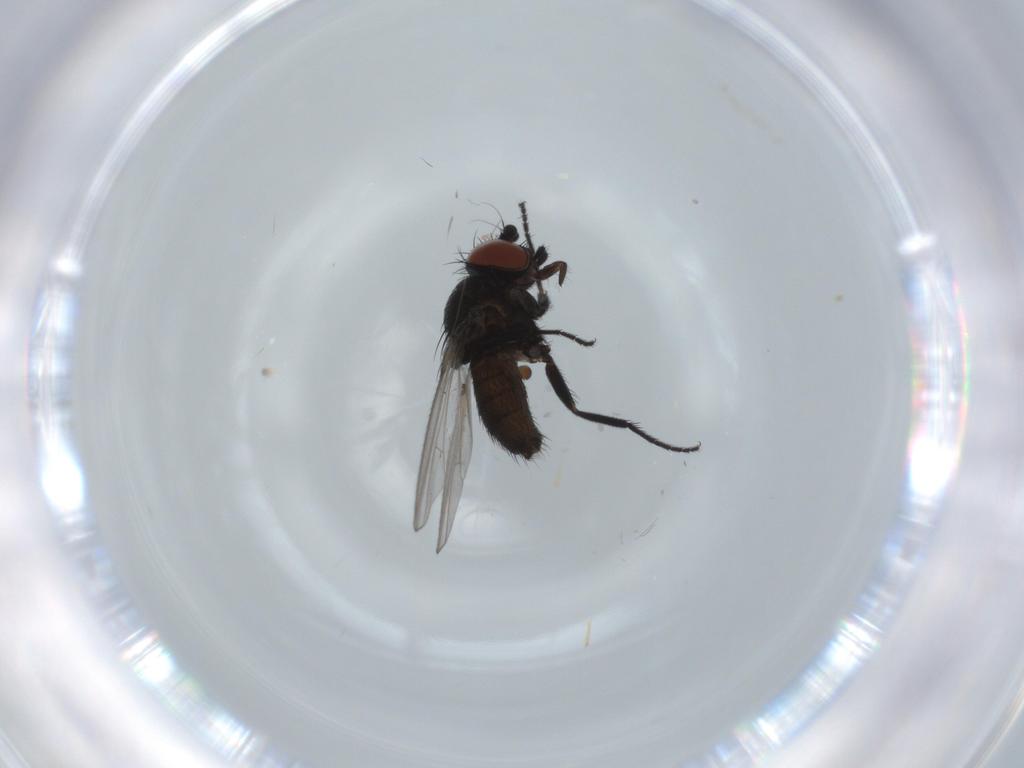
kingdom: Animalia
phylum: Arthropoda
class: Insecta
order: Diptera
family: Milichiidae
